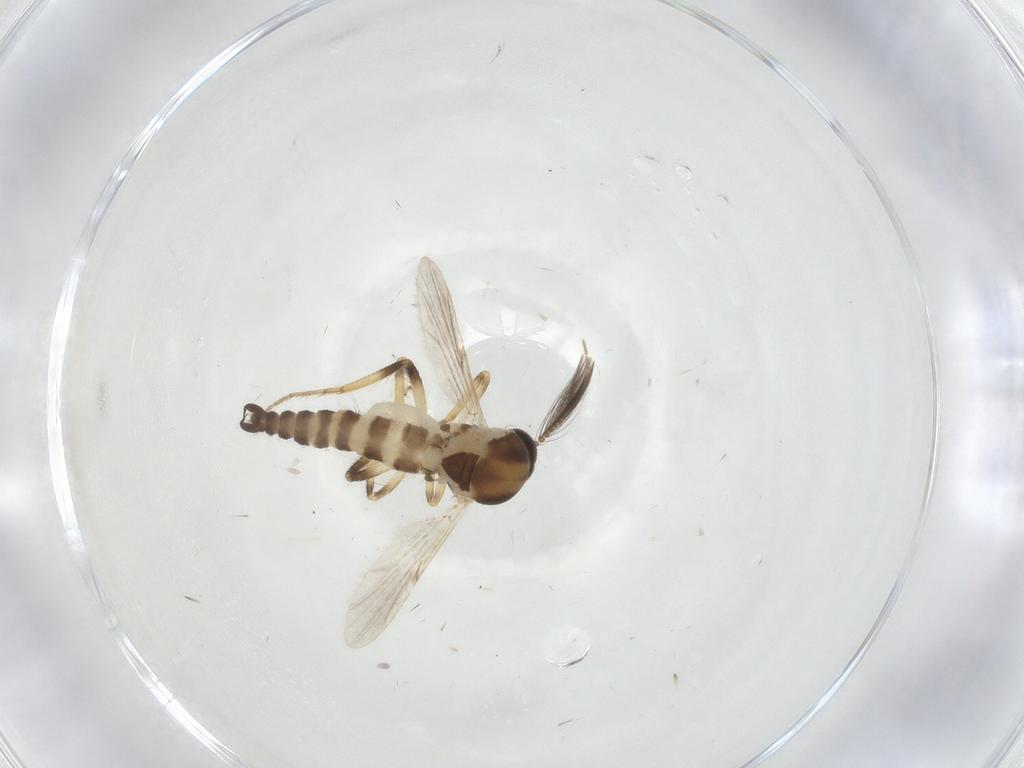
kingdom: Animalia
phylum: Arthropoda
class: Insecta
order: Diptera
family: Ceratopogonidae
